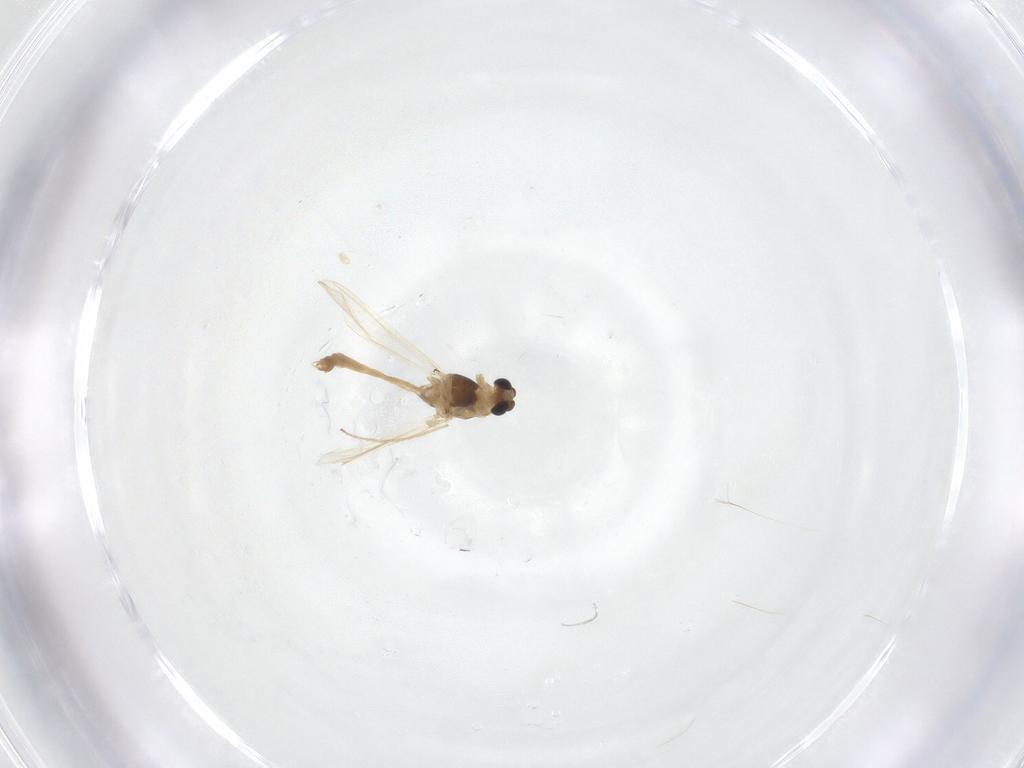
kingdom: Animalia
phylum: Arthropoda
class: Insecta
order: Diptera
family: Chironomidae
